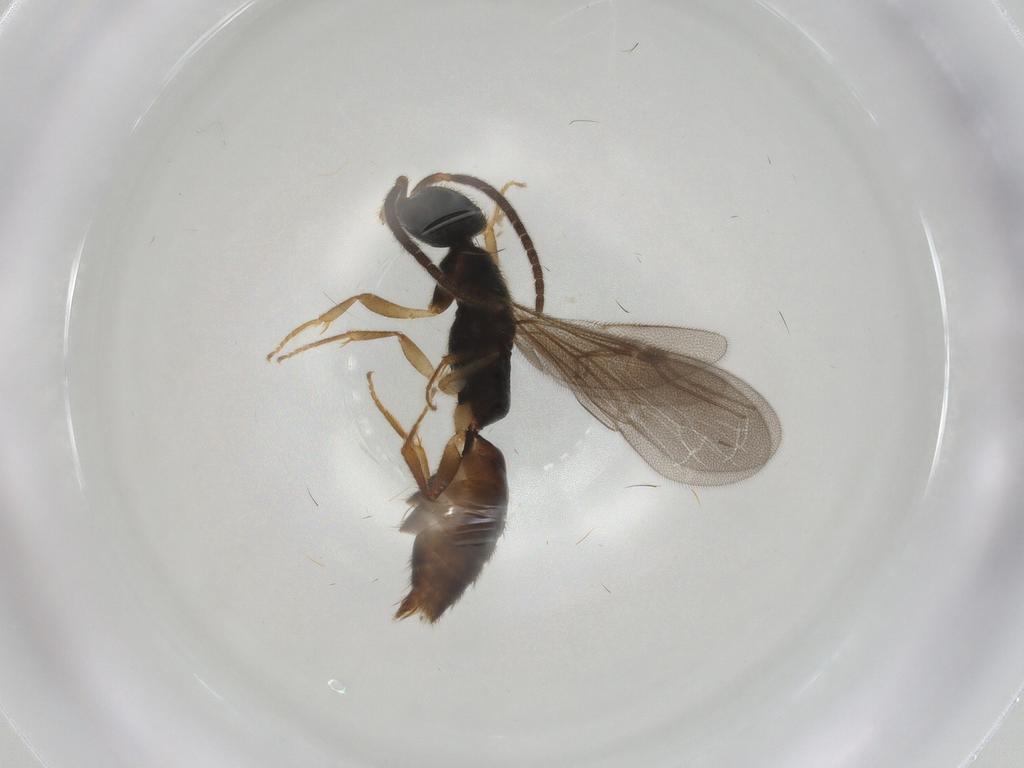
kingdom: Animalia
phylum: Arthropoda
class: Insecta
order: Hymenoptera
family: Bethylidae
